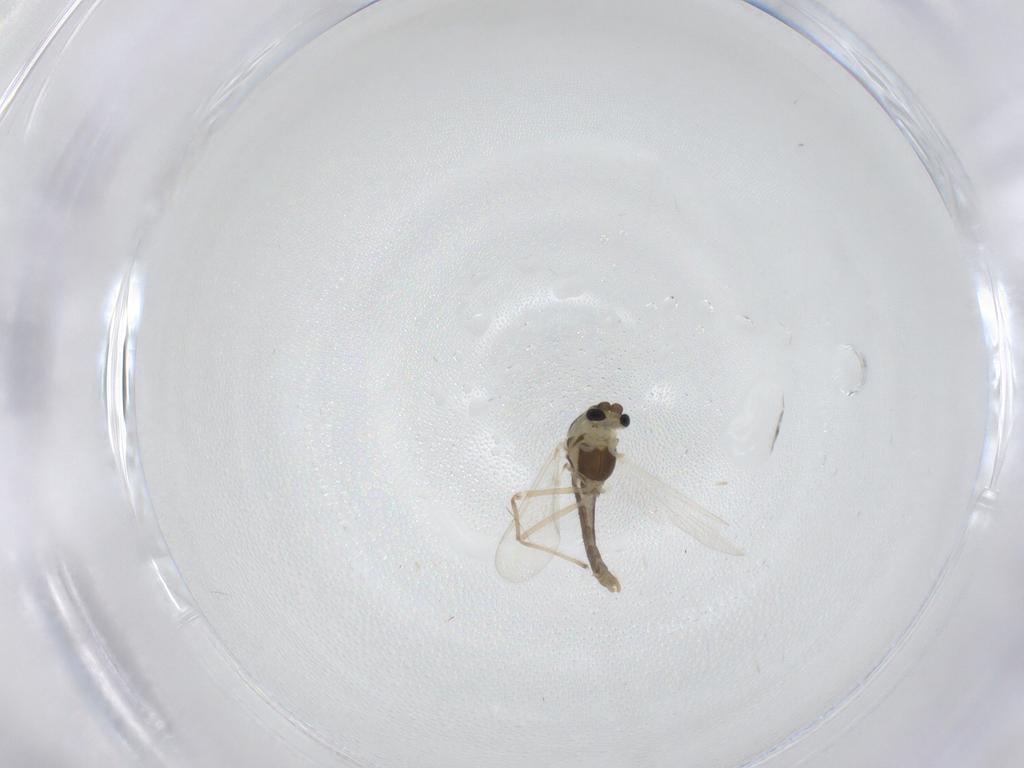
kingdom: Animalia
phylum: Arthropoda
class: Insecta
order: Diptera
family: Chironomidae
